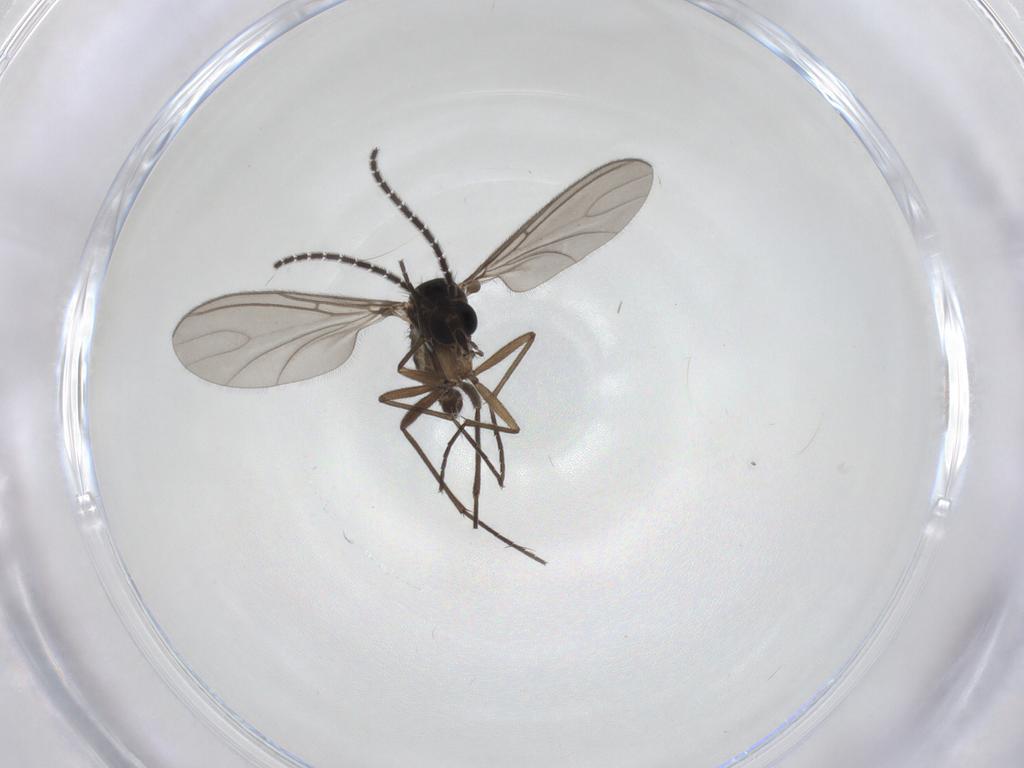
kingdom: Animalia
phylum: Arthropoda
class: Insecta
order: Diptera
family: Sciaridae
